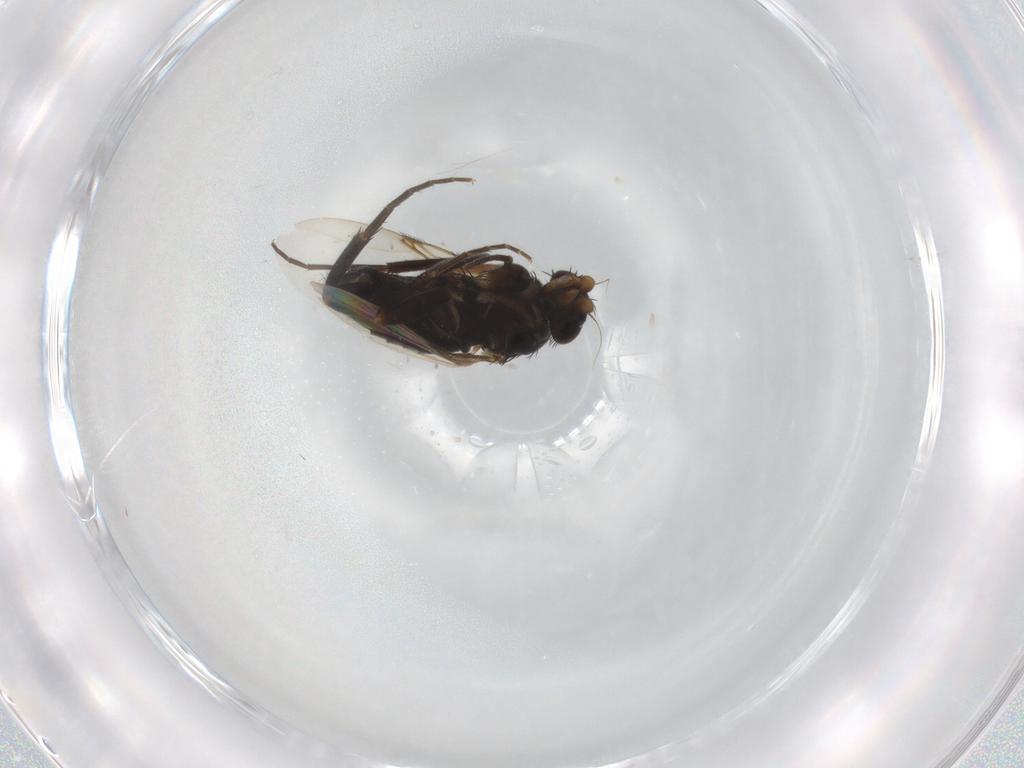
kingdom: Animalia
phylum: Arthropoda
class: Insecta
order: Diptera
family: Phoridae
